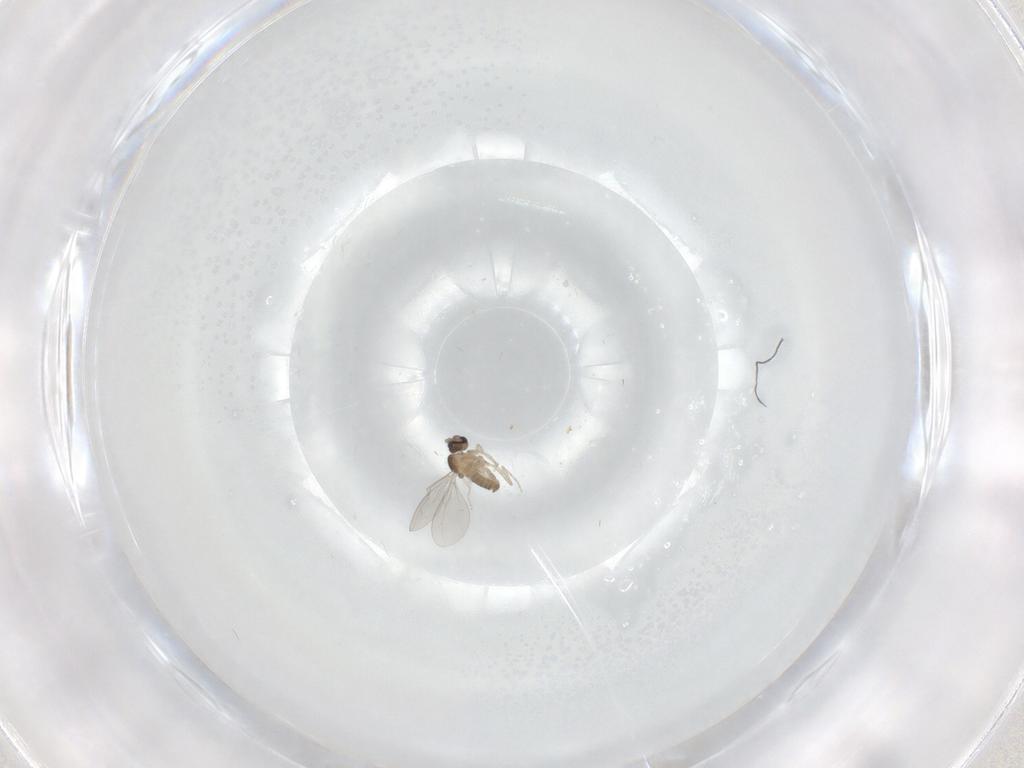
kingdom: Animalia
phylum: Arthropoda
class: Insecta
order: Diptera
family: Cecidomyiidae
